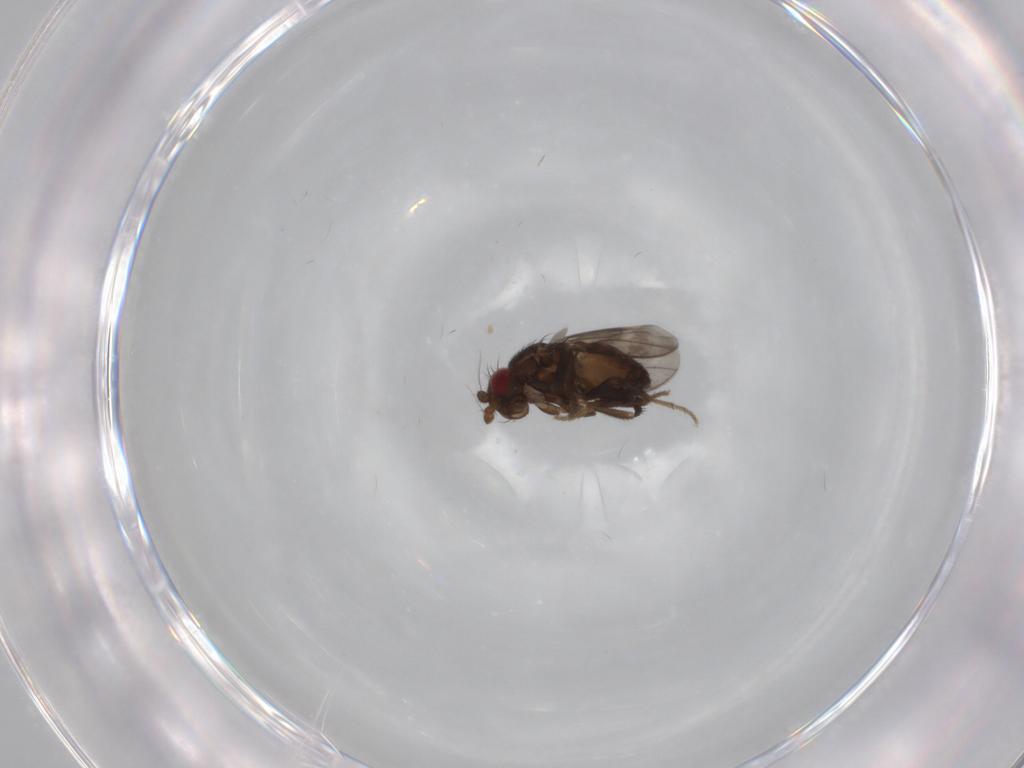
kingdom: Animalia
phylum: Arthropoda
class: Insecta
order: Diptera
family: Sphaeroceridae
